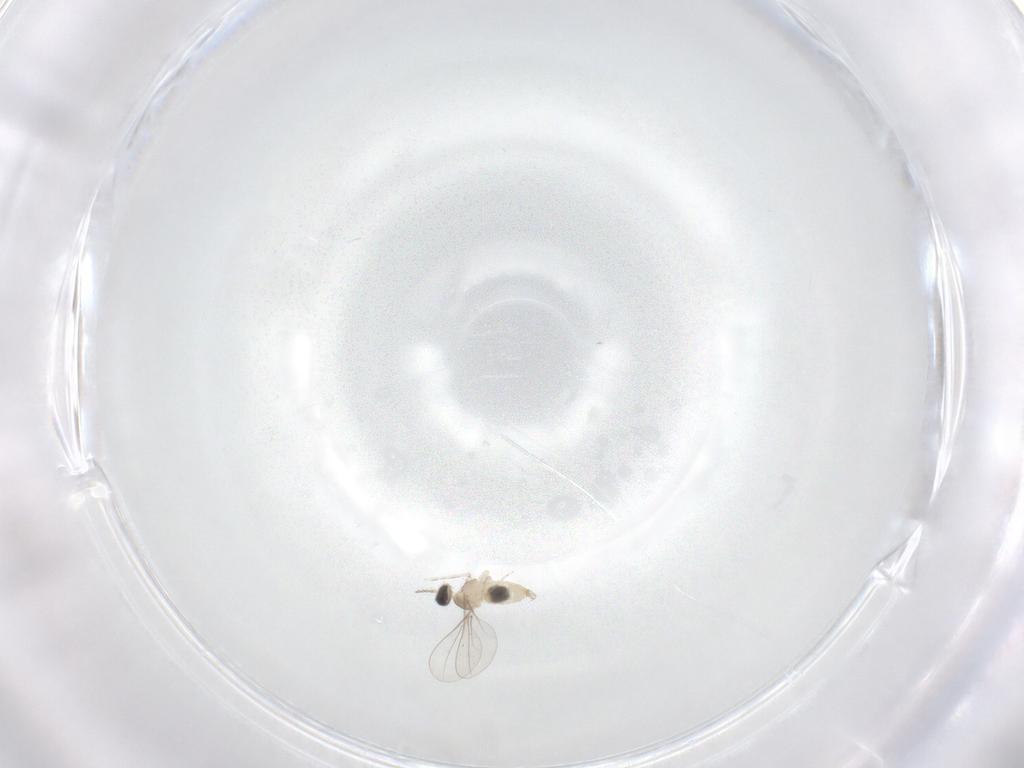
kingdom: Animalia
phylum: Arthropoda
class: Insecta
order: Diptera
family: Cecidomyiidae
